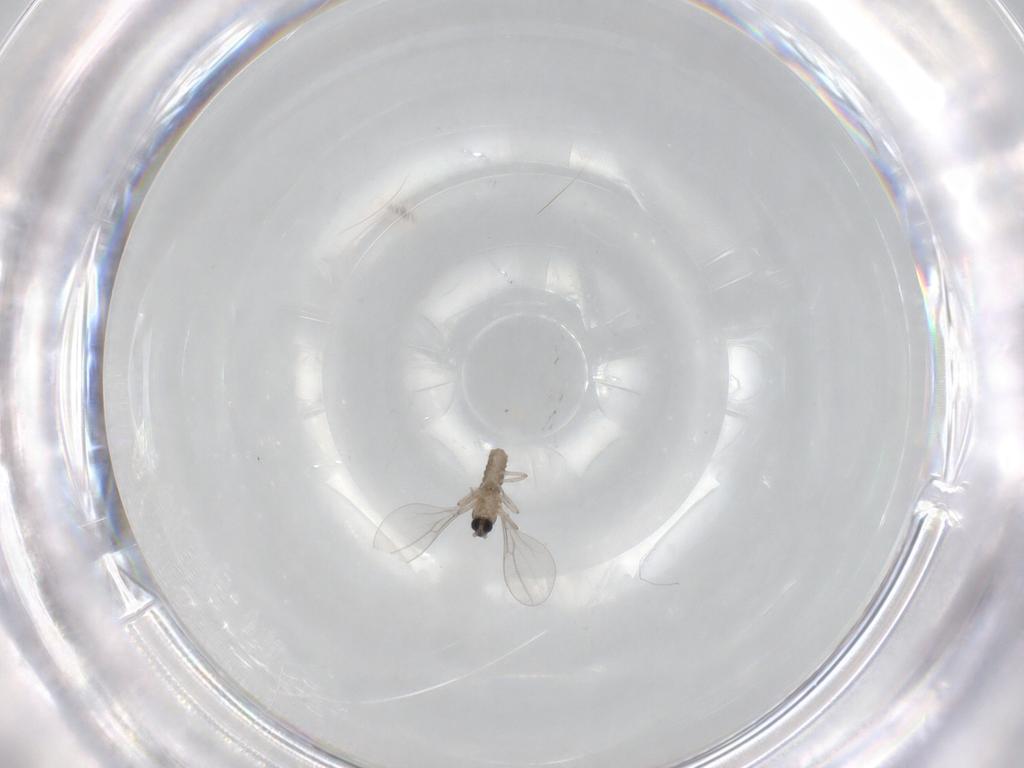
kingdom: Animalia
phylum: Arthropoda
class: Insecta
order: Diptera
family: Cecidomyiidae
